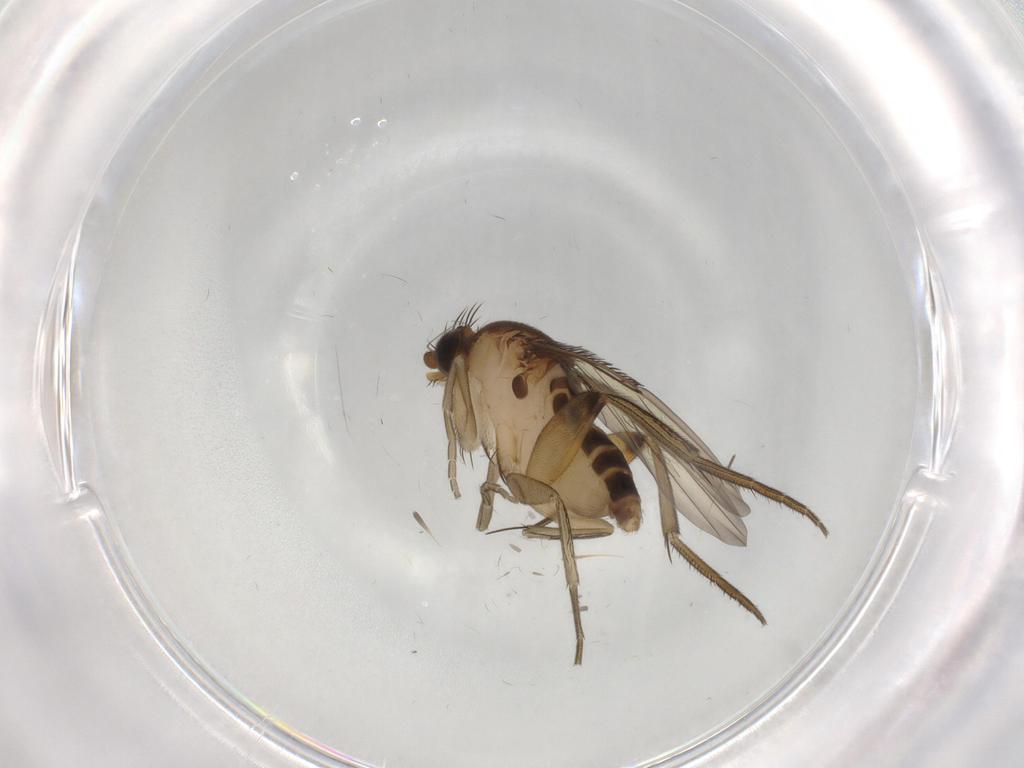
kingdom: Animalia
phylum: Arthropoda
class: Insecta
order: Diptera
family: Phoridae
